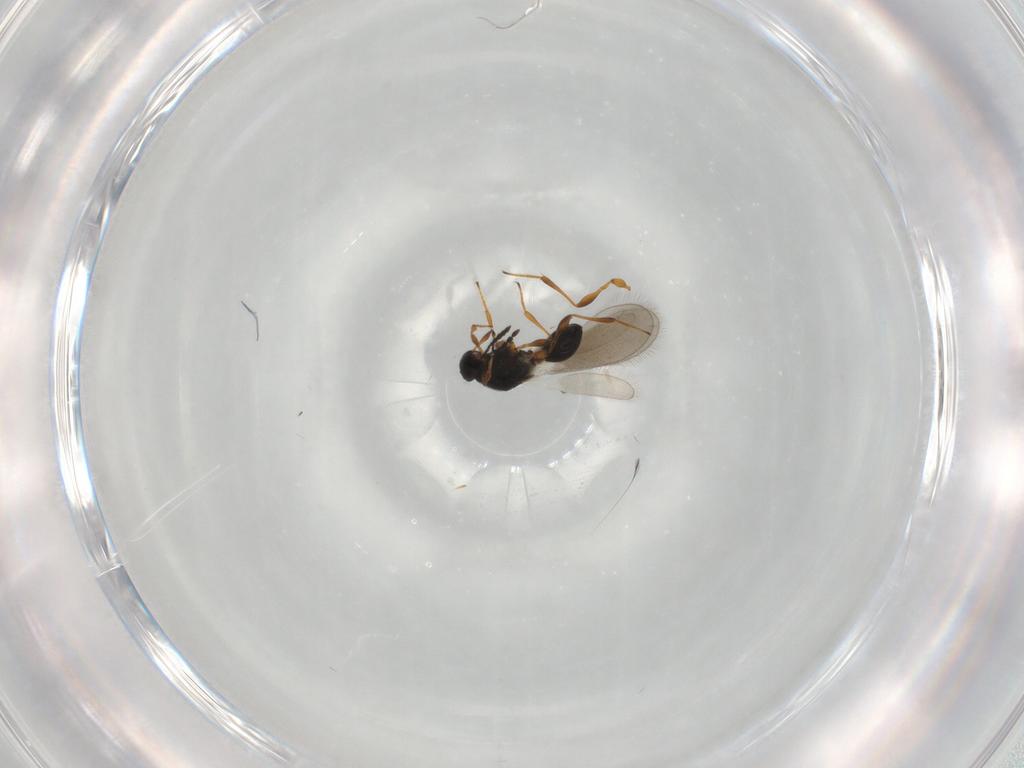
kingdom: Animalia
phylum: Arthropoda
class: Insecta
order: Hymenoptera
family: Platygastridae
